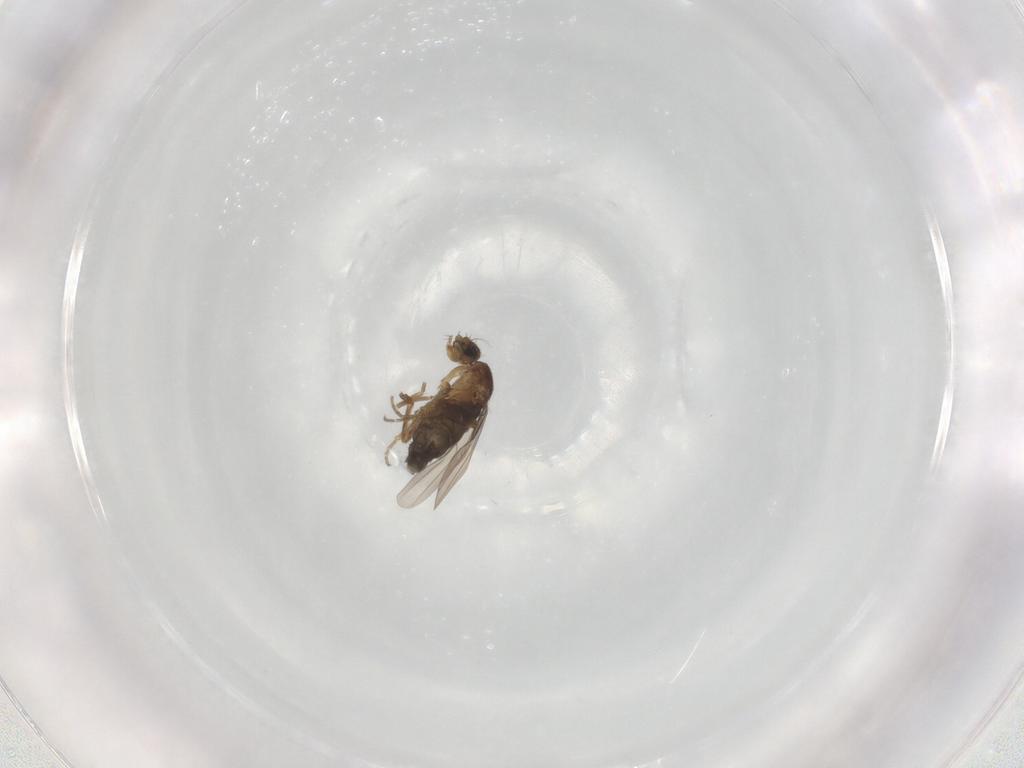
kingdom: Animalia
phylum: Arthropoda
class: Insecta
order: Diptera
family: Phoridae
